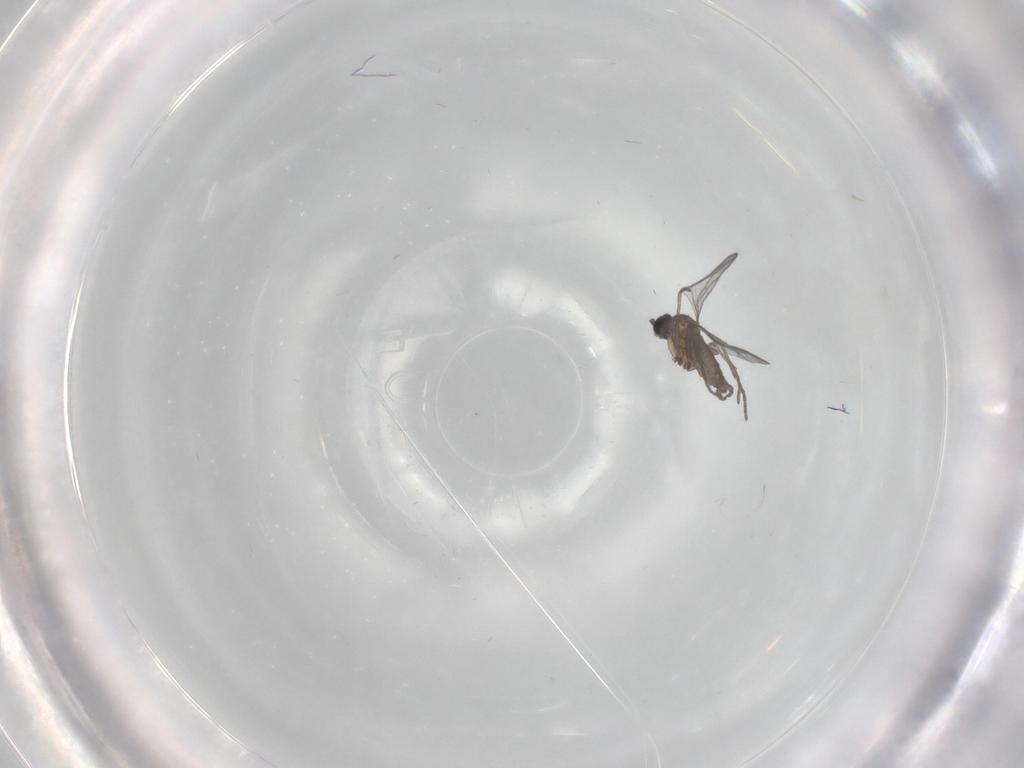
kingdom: Animalia
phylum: Arthropoda
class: Insecta
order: Diptera
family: Chironomidae
